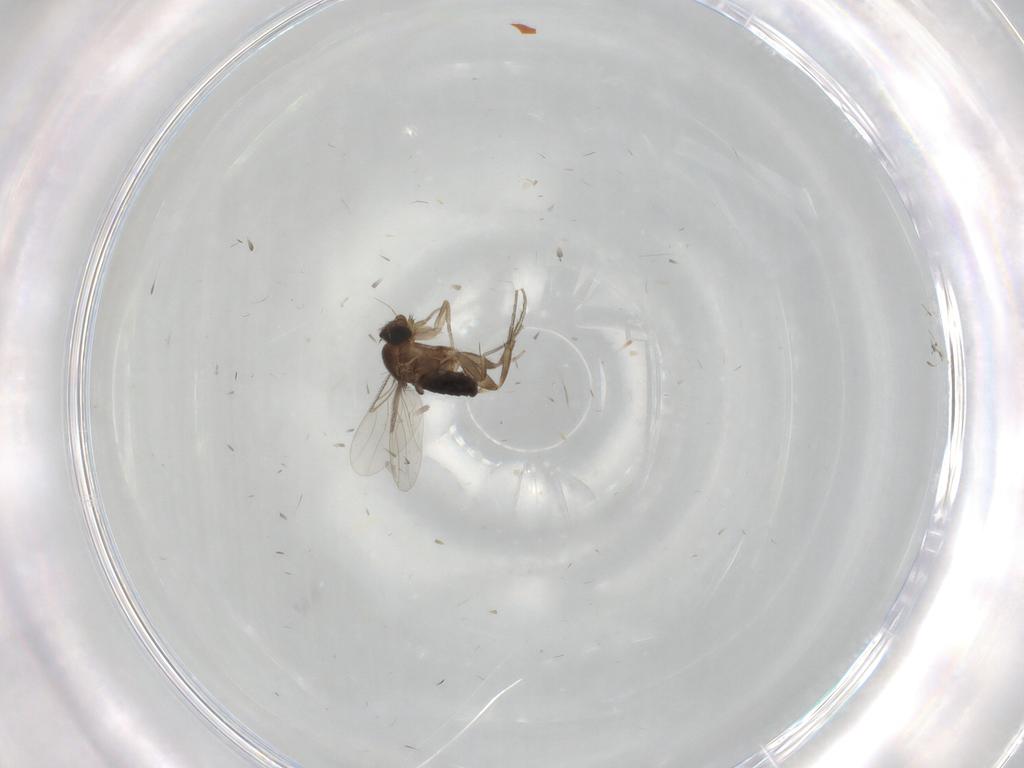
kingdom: Animalia
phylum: Arthropoda
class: Insecta
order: Diptera
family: Phoridae
